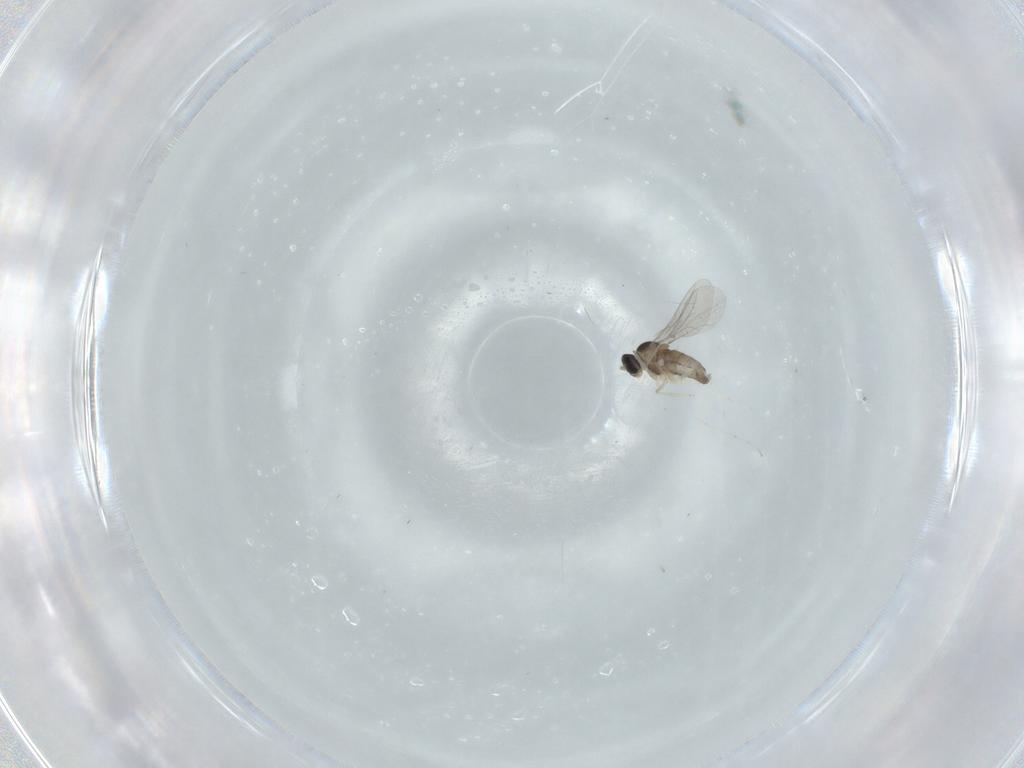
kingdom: Animalia
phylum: Arthropoda
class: Insecta
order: Diptera
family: Phoridae
